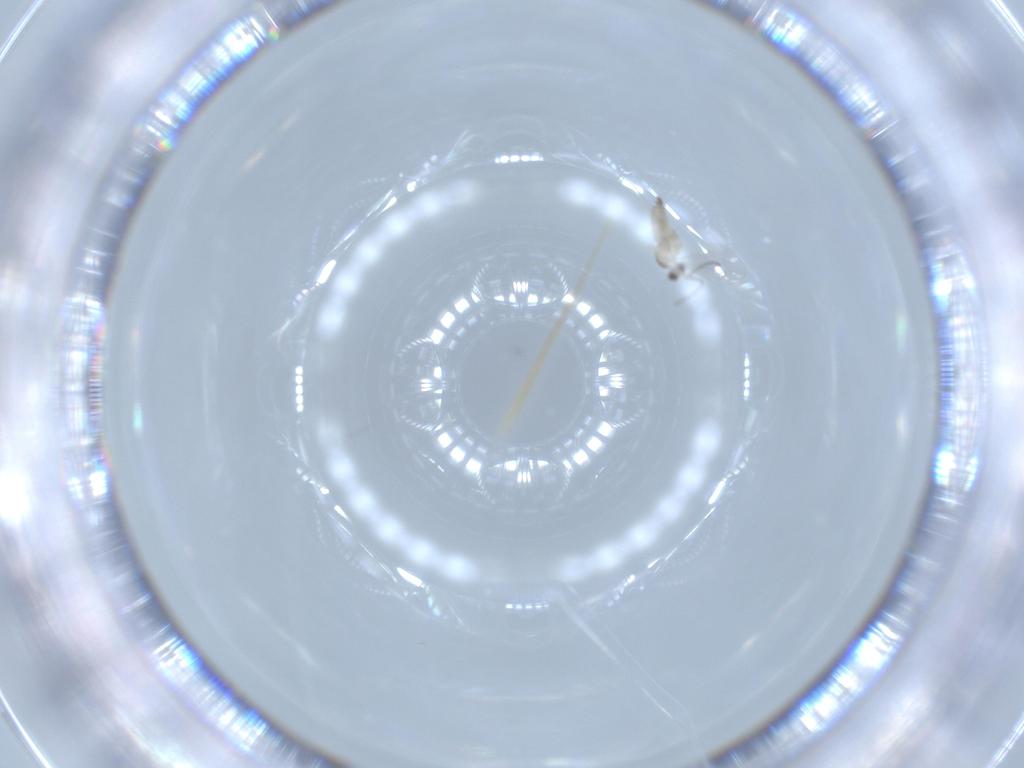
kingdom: Animalia
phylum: Arthropoda
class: Insecta
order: Diptera
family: Cecidomyiidae
